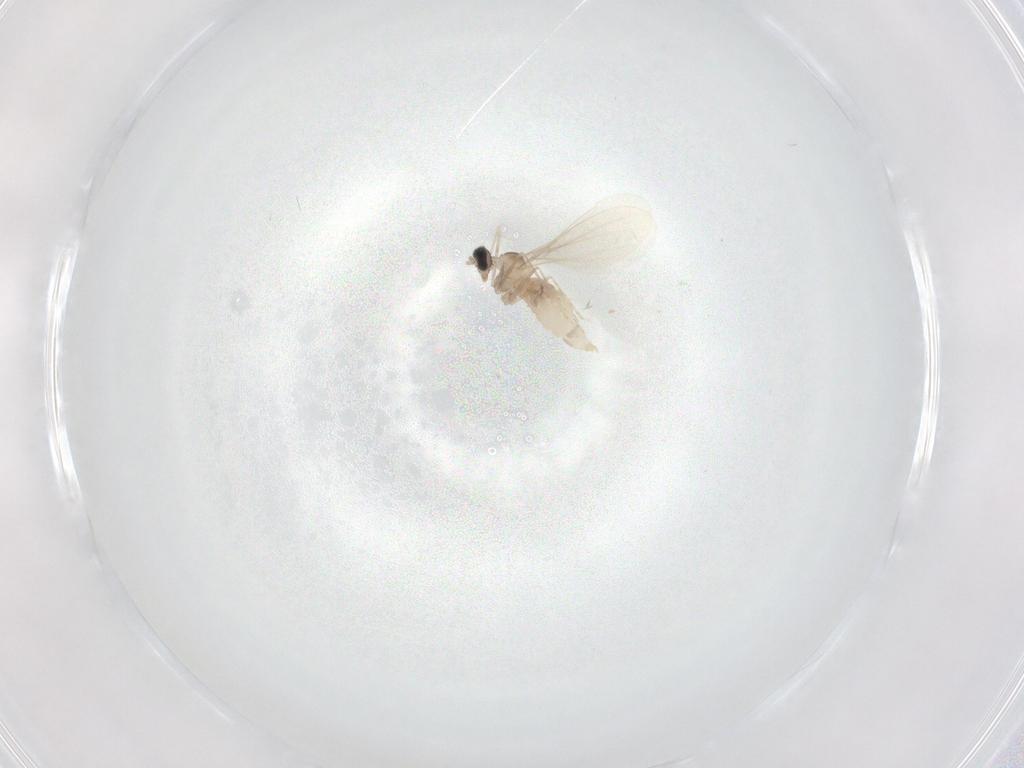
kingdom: Animalia
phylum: Arthropoda
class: Insecta
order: Diptera
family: Cecidomyiidae
